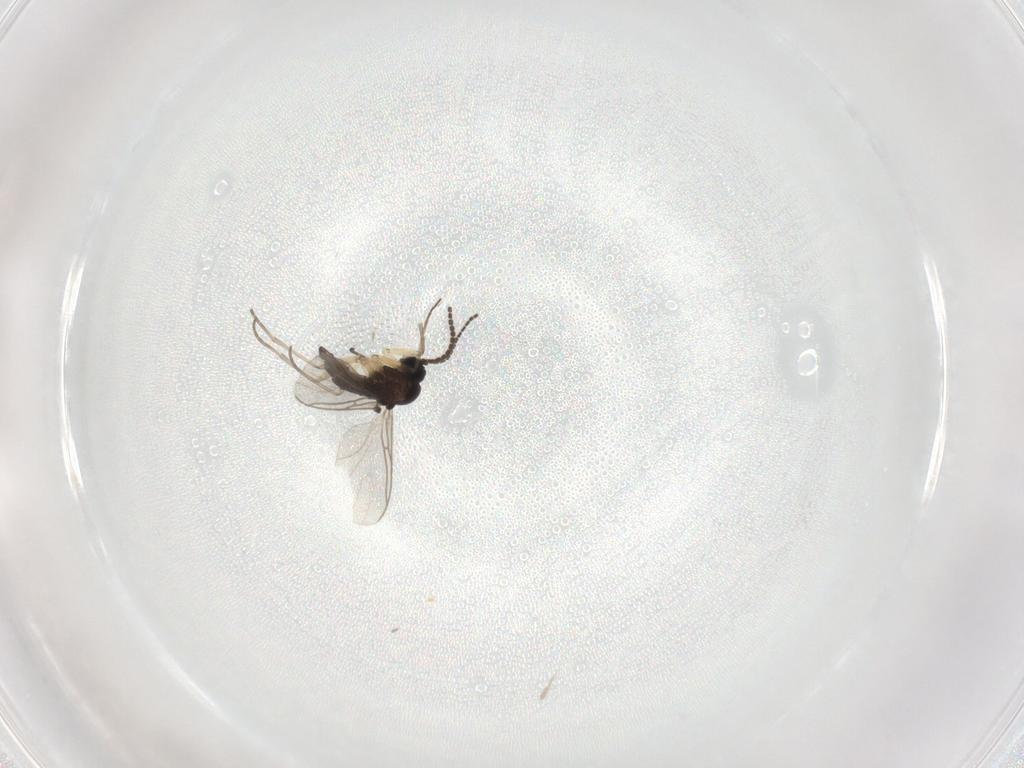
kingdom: Animalia
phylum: Arthropoda
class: Insecta
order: Diptera
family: Sciaridae
